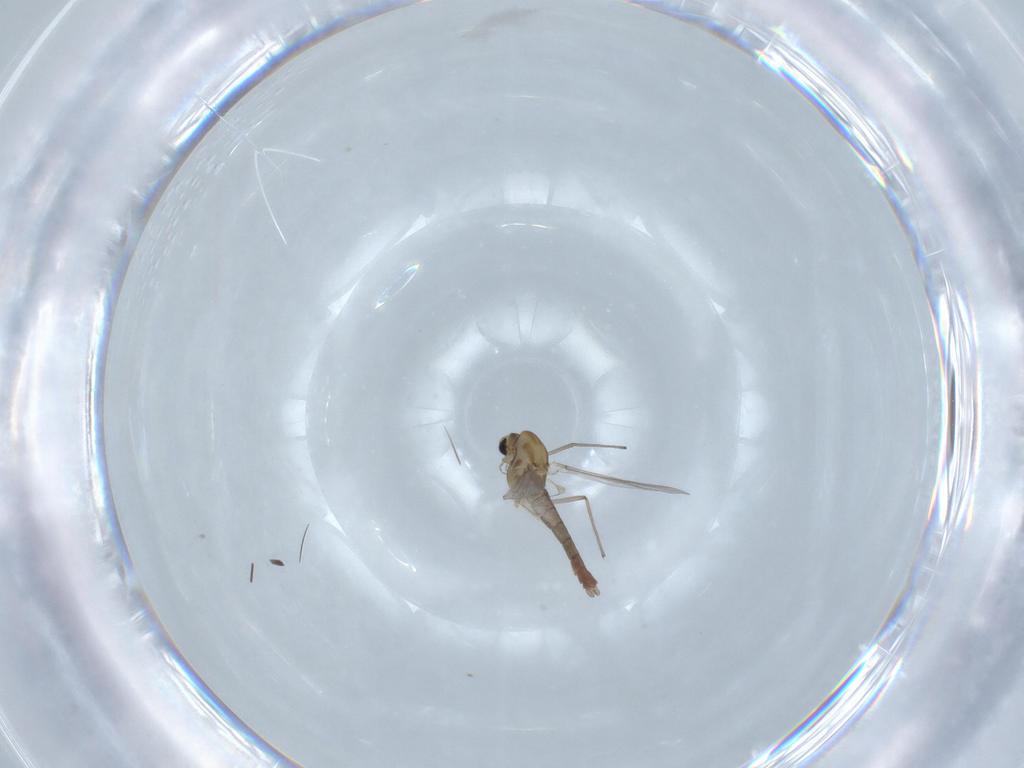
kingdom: Animalia
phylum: Arthropoda
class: Insecta
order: Diptera
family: Chironomidae
